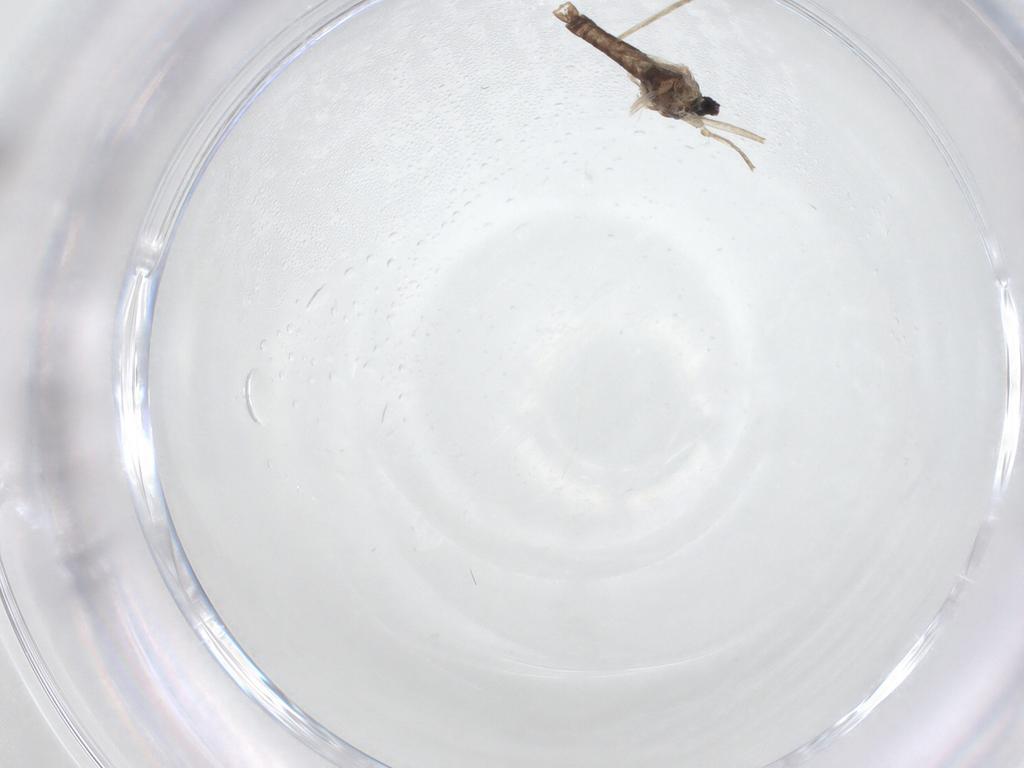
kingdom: Animalia
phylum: Arthropoda
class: Insecta
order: Diptera
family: Cecidomyiidae
